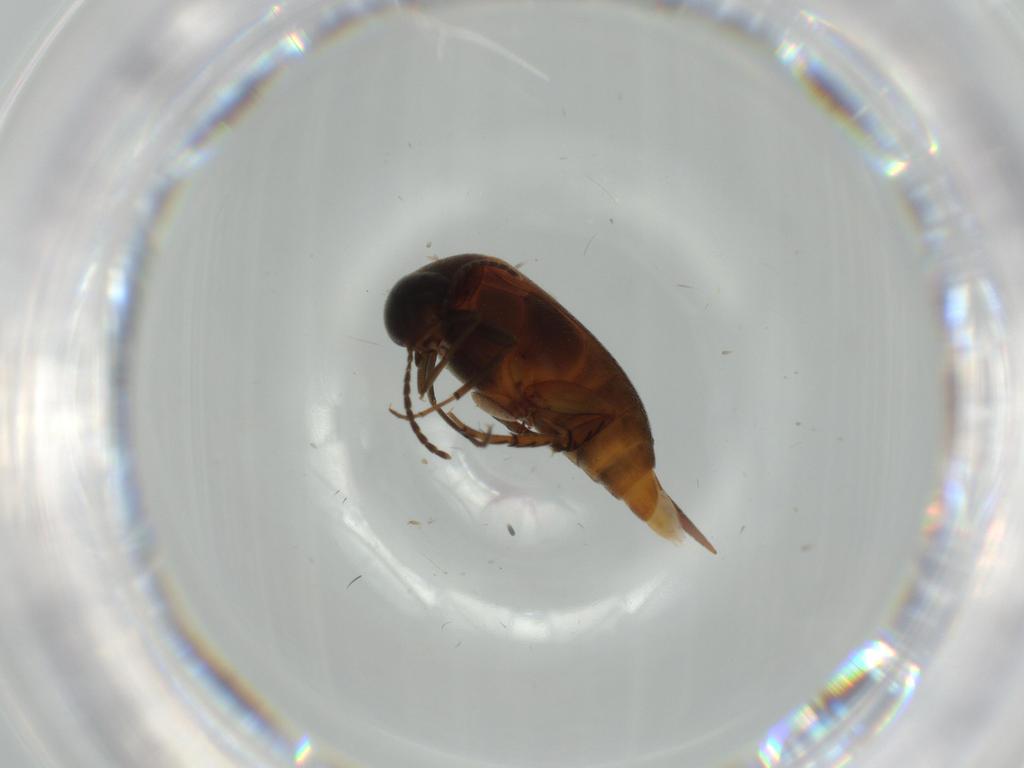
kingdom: Animalia
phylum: Arthropoda
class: Insecta
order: Coleoptera
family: Mordellidae
